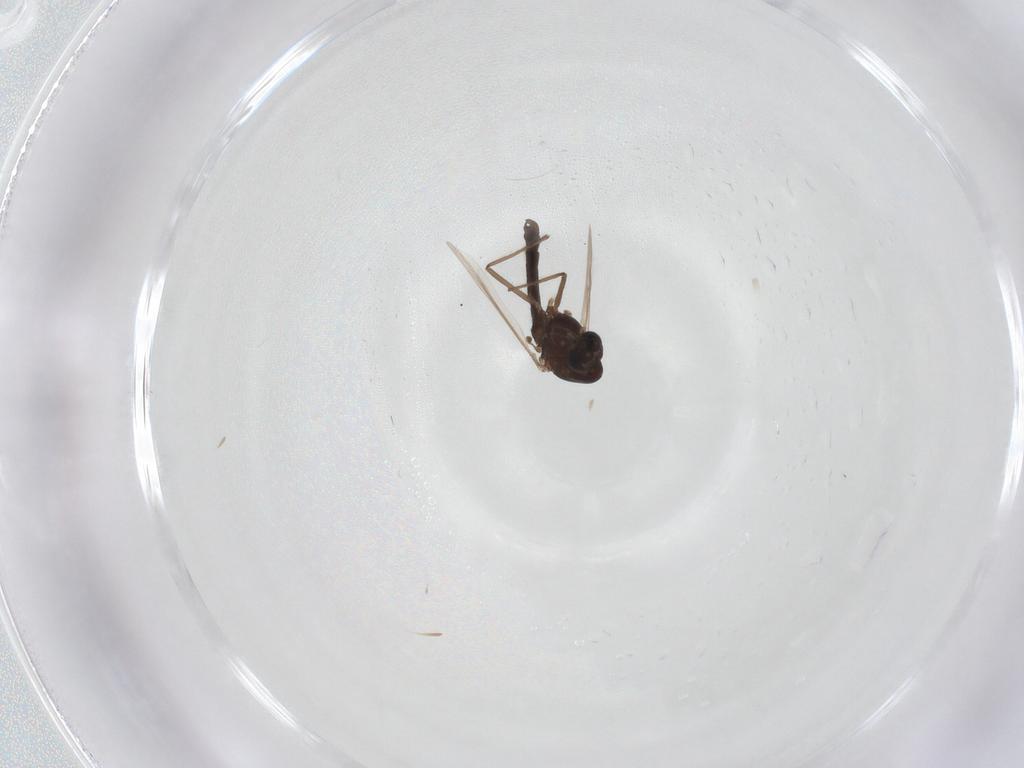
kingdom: Animalia
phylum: Arthropoda
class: Insecta
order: Diptera
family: Chironomidae
